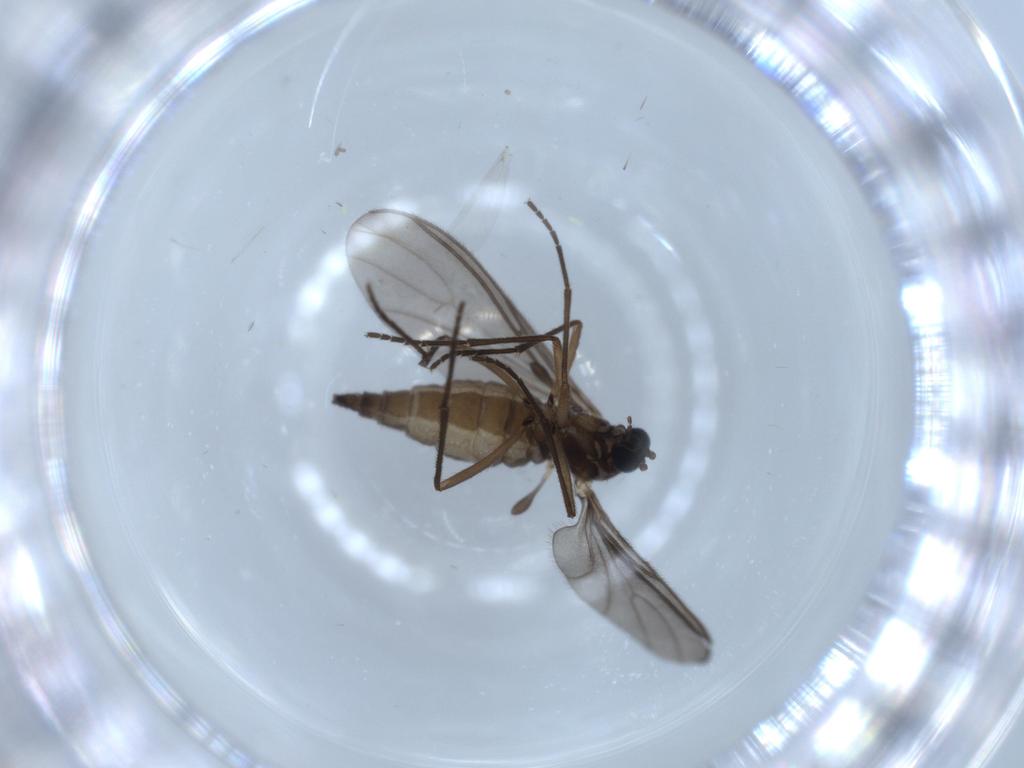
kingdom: Animalia
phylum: Arthropoda
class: Insecta
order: Diptera
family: Sciaridae
